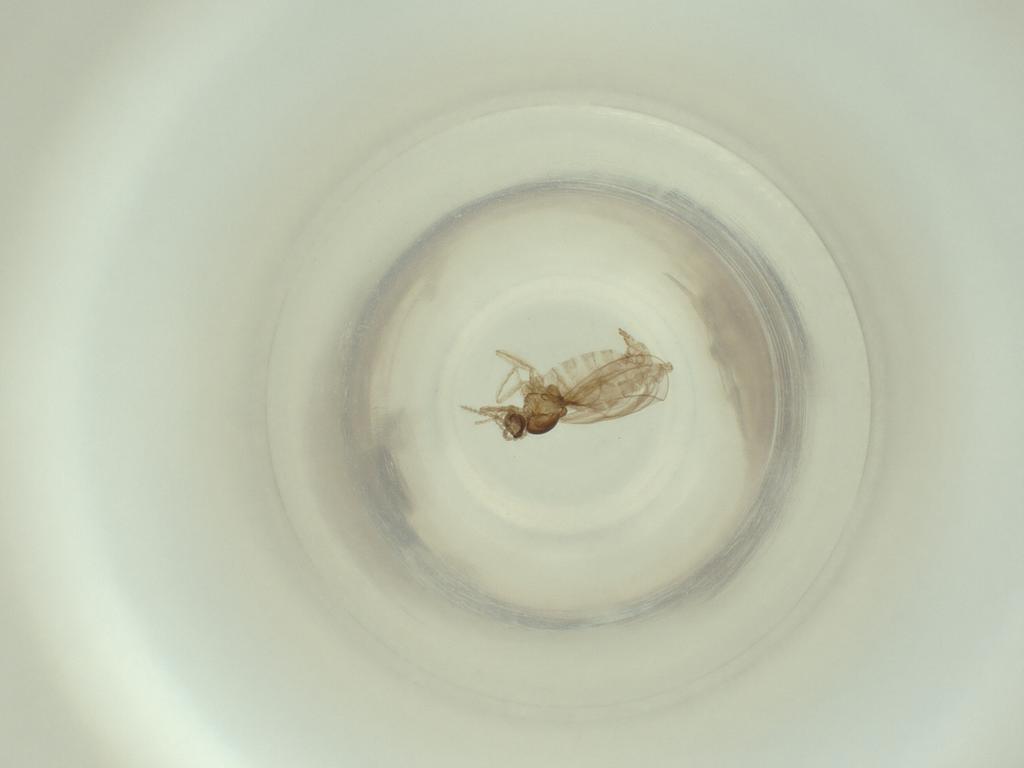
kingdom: Animalia
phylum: Arthropoda
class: Insecta
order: Diptera
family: Cecidomyiidae
